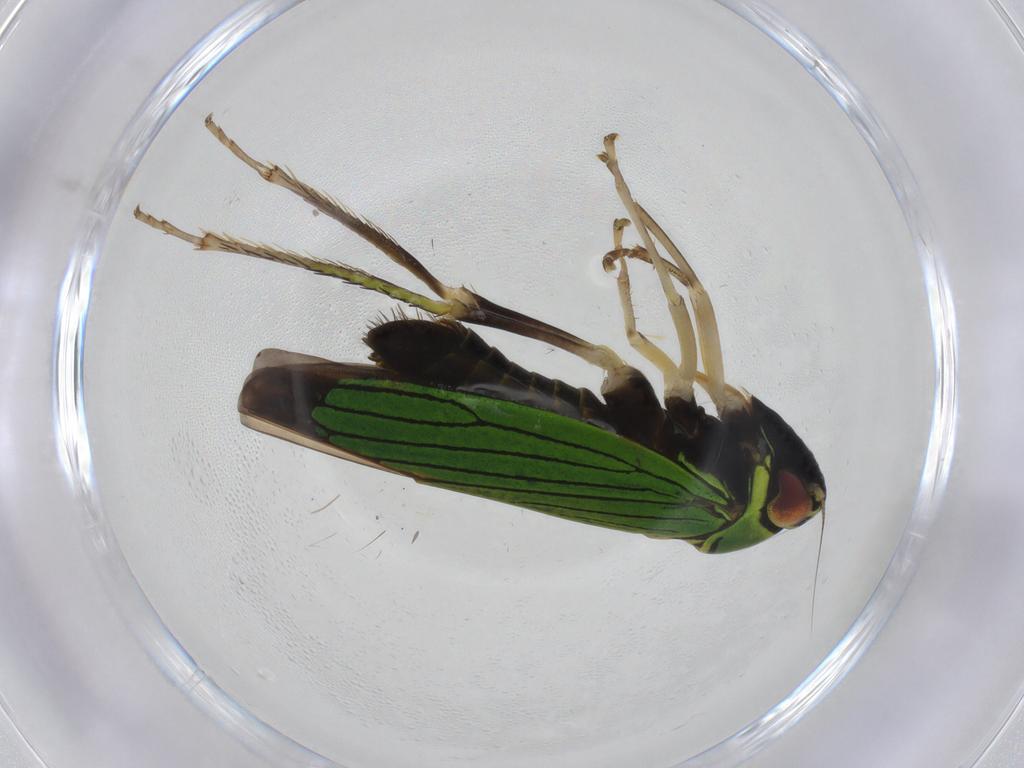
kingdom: Animalia
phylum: Arthropoda
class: Insecta
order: Hemiptera
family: Cicadellidae
